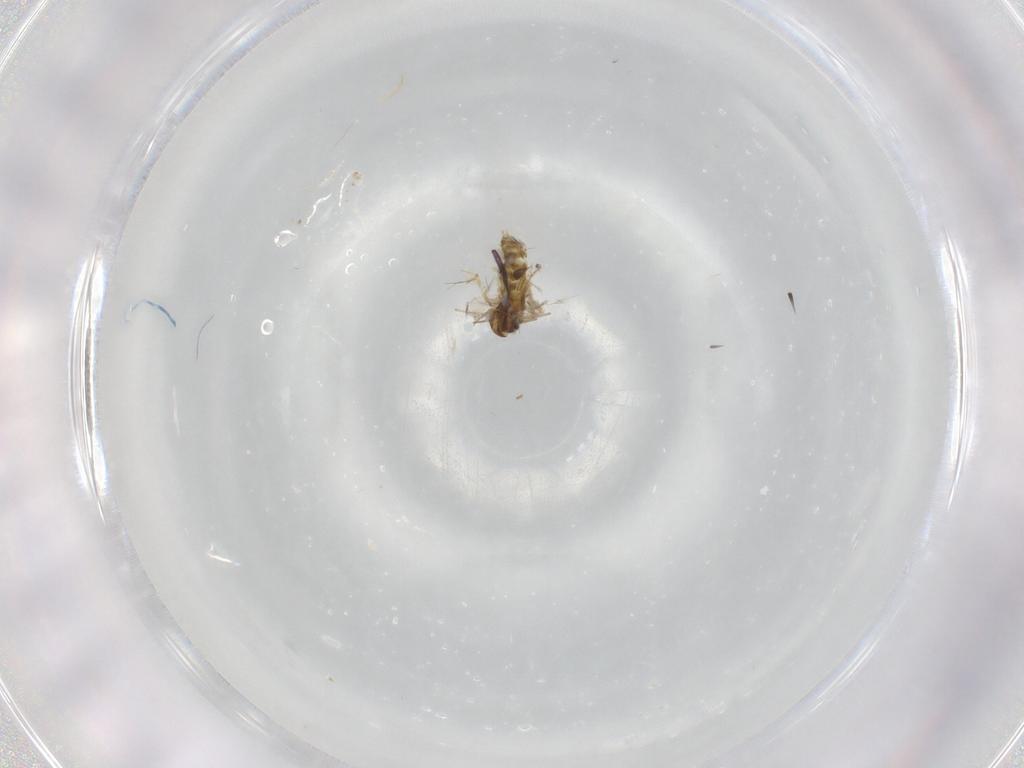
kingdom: Animalia
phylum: Arthropoda
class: Insecta
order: Diptera
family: Chironomidae
